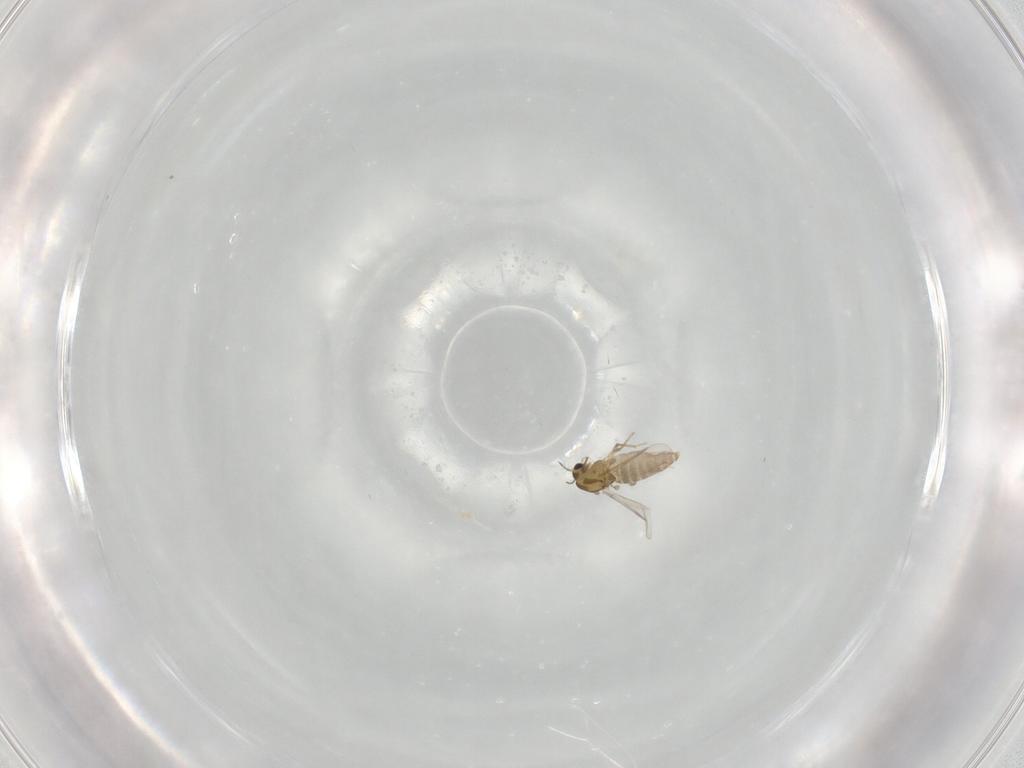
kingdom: Animalia
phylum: Arthropoda
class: Insecta
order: Diptera
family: Chironomidae
